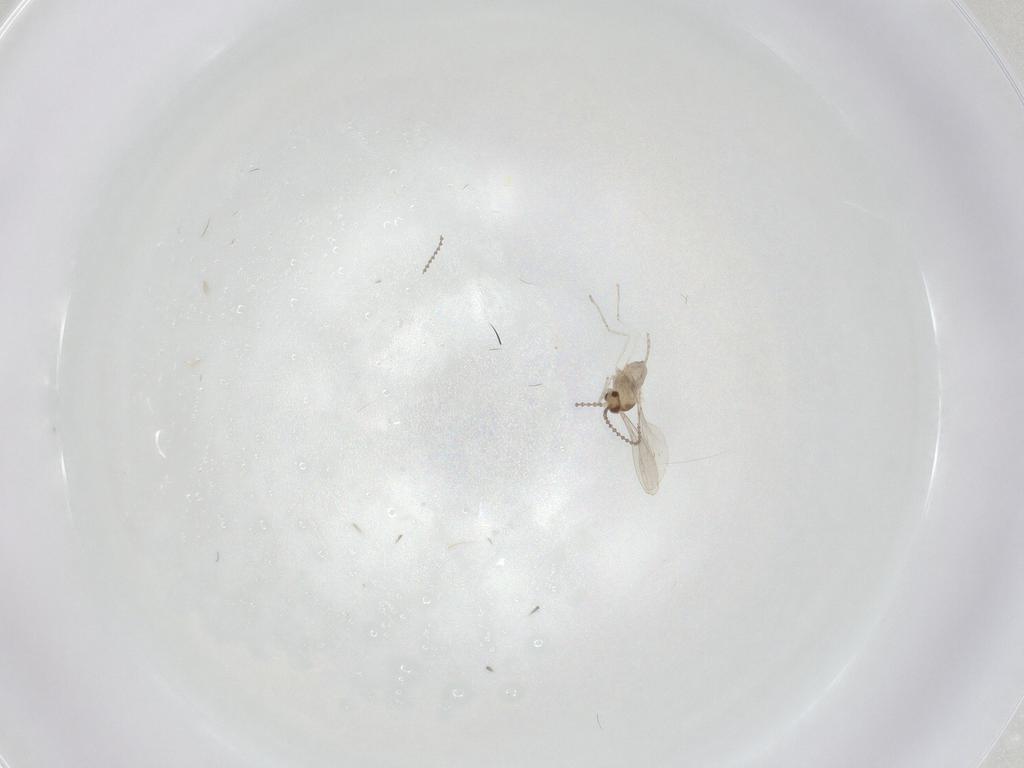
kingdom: Animalia
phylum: Arthropoda
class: Insecta
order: Diptera
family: Cecidomyiidae
